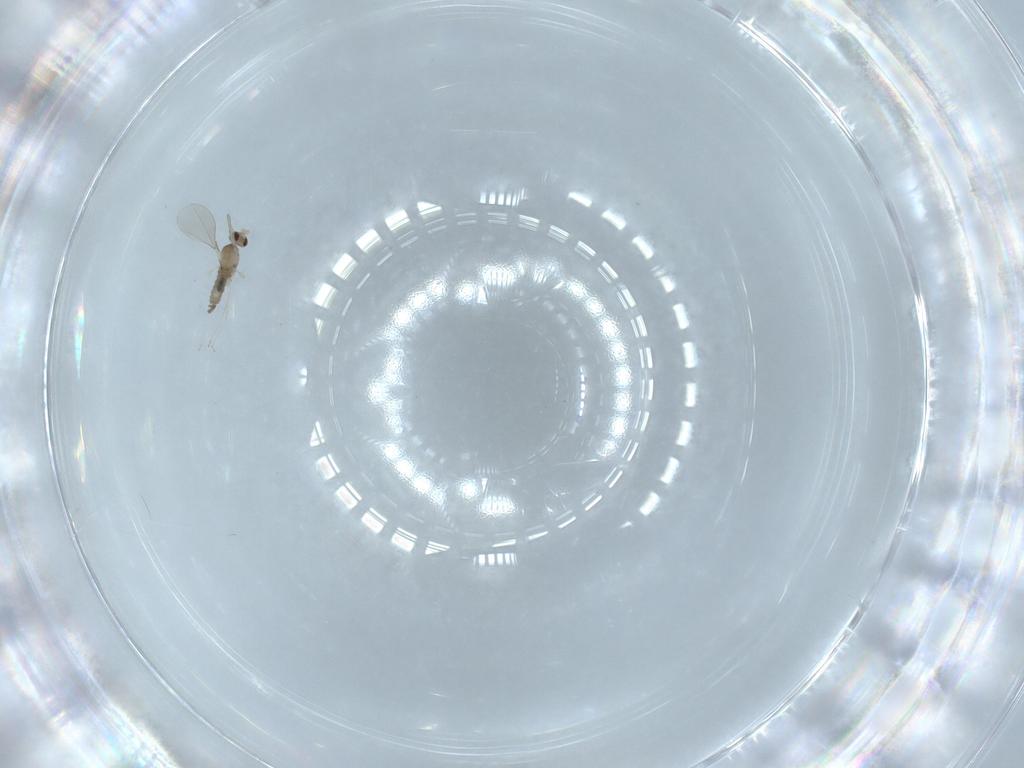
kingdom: Animalia
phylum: Arthropoda
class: Insecta
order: Diptera
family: Cecidomyiidae
